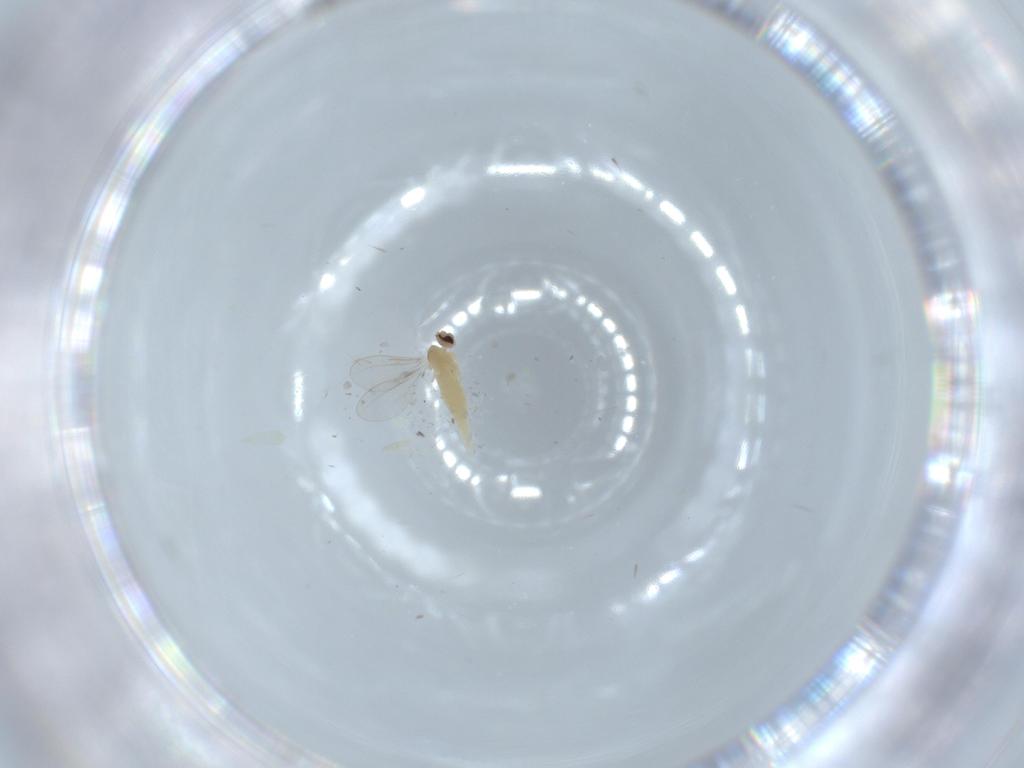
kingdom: Animalia
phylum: Arthropoda
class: Insecta
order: Diptera
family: Cecidomyiidae
